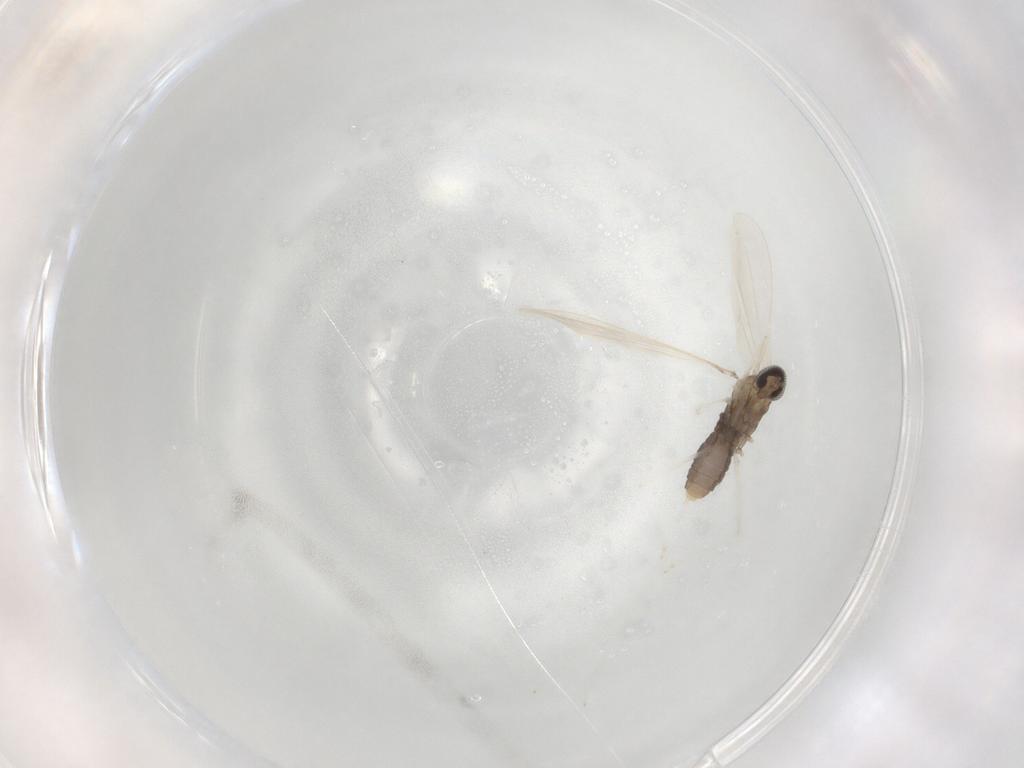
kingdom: Animalia
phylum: Arthropoda
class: Insecta
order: Diptera
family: Cecidomyiidae
